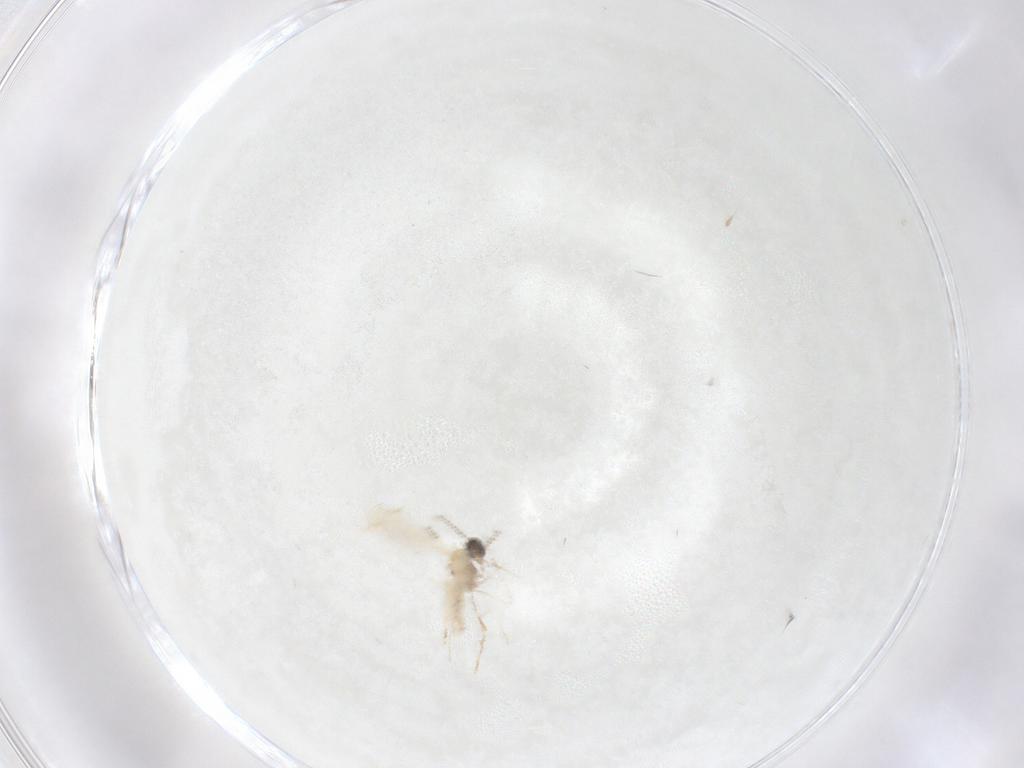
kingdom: Animalia
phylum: Arthropoda
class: Insecta
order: Diptera
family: Cecidomyiidae
